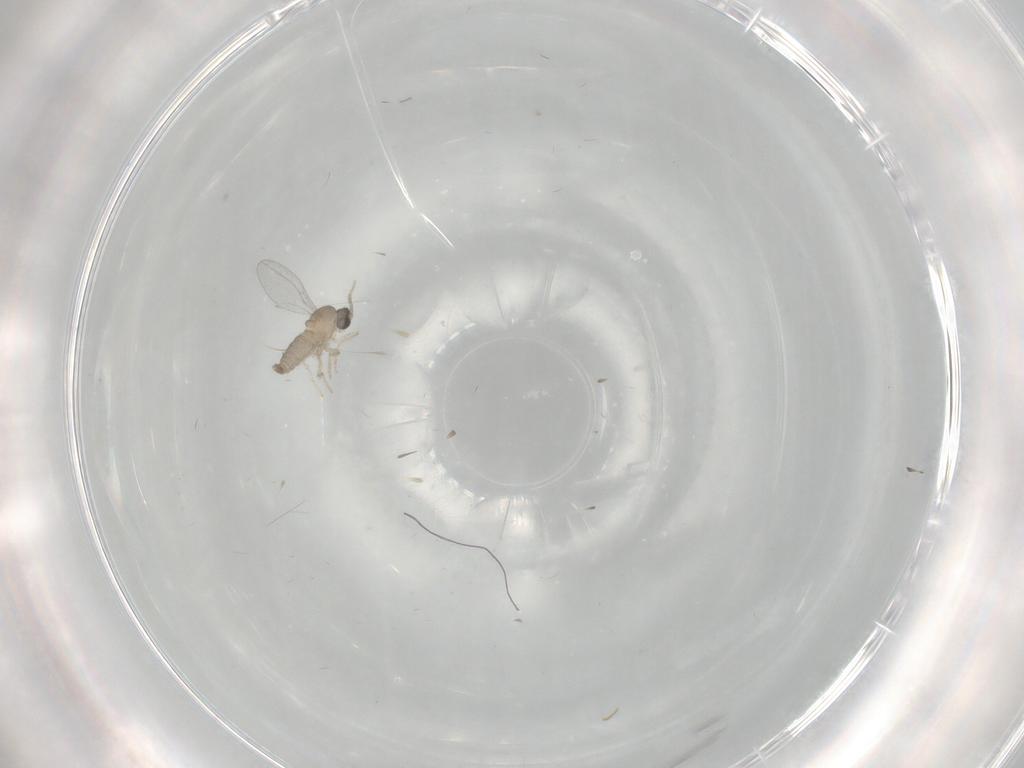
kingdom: Animalia
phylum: Arthropoda
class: Insecta
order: Diptera
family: Cecidomyiidae
